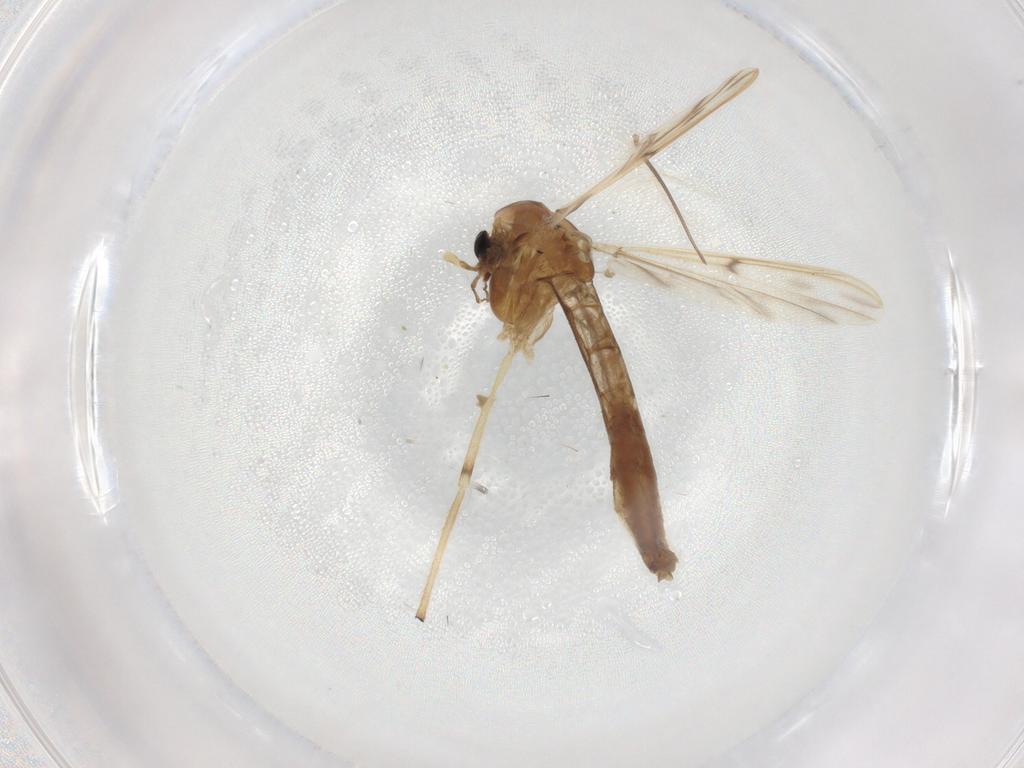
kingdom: Animalia
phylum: Arthropoda
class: Insecta
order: Diptera
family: Chironomidae
